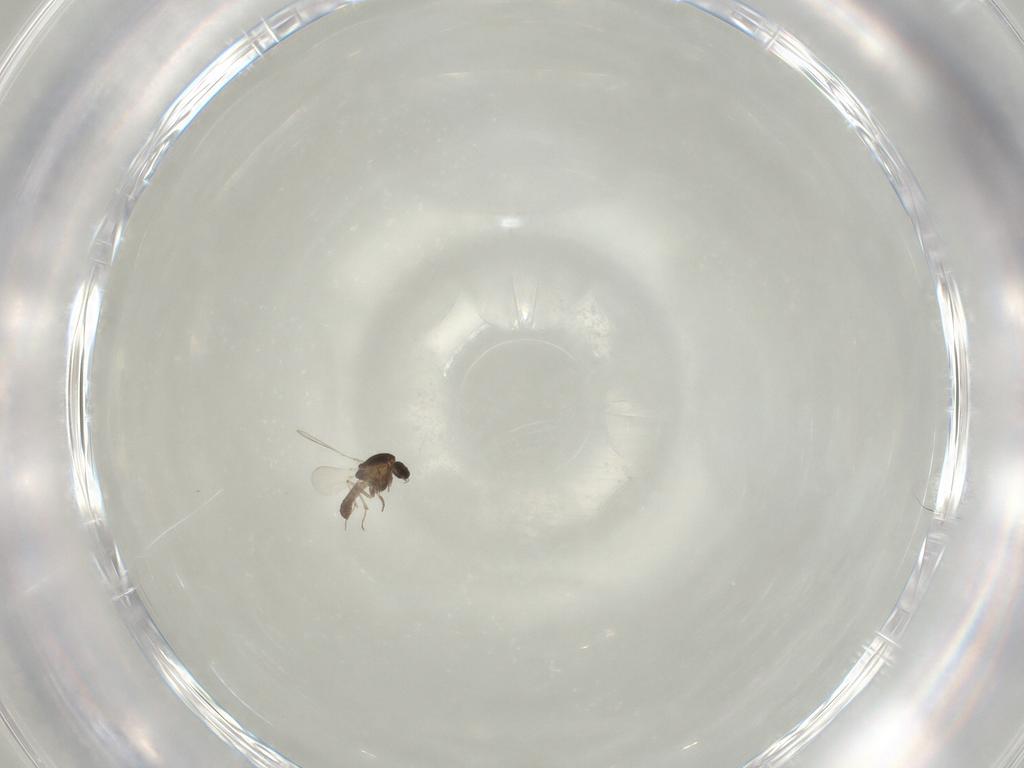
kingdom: Animalia
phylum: Arthropoda
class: Insecta
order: Diptera
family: Chironomidae
